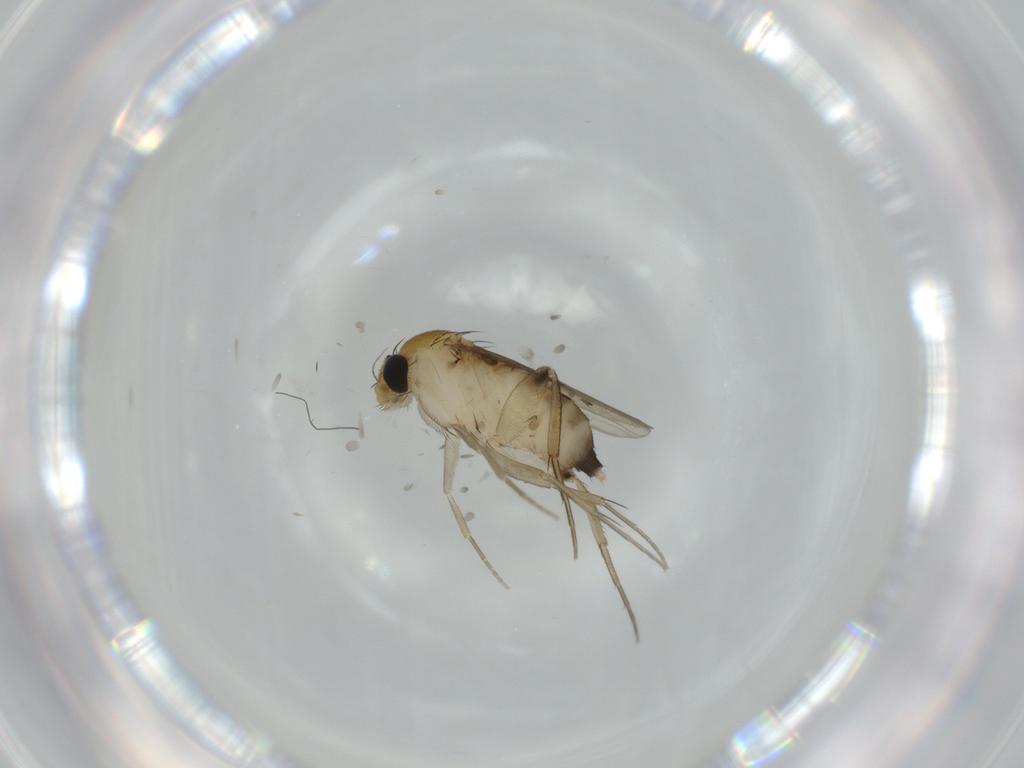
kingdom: Animalia
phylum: Arthropoda
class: Insecta
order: Diptera
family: Phoridae
